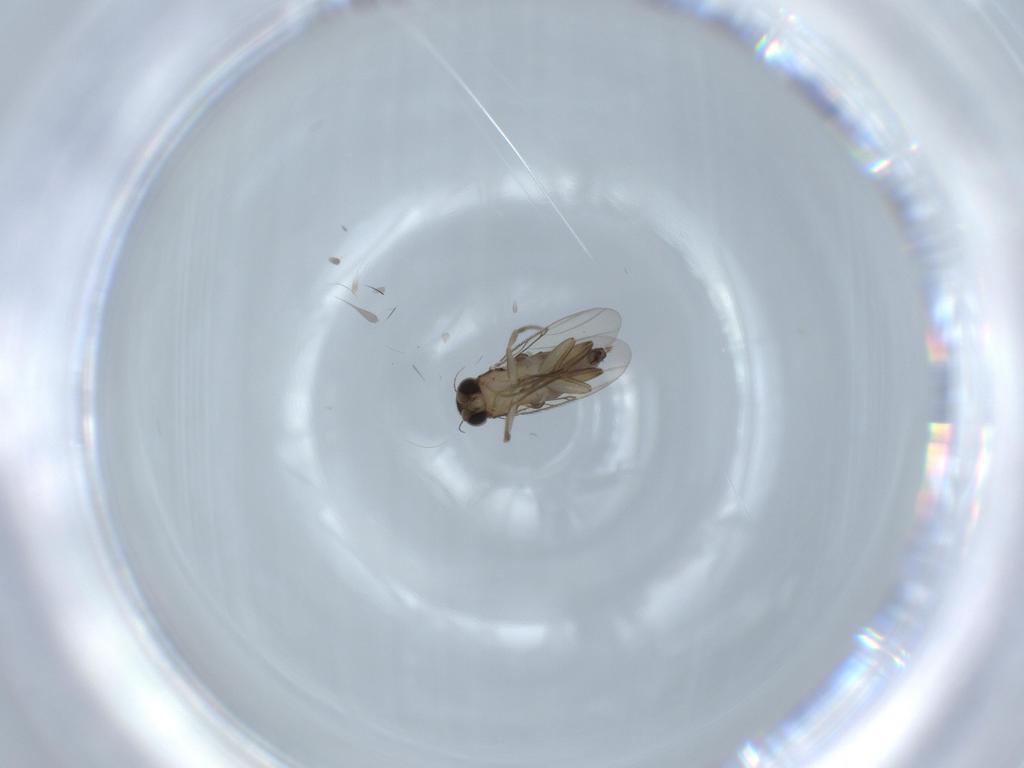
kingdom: Animalia
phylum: Arthropoda
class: Insecta
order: Diptera
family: Phoridae
